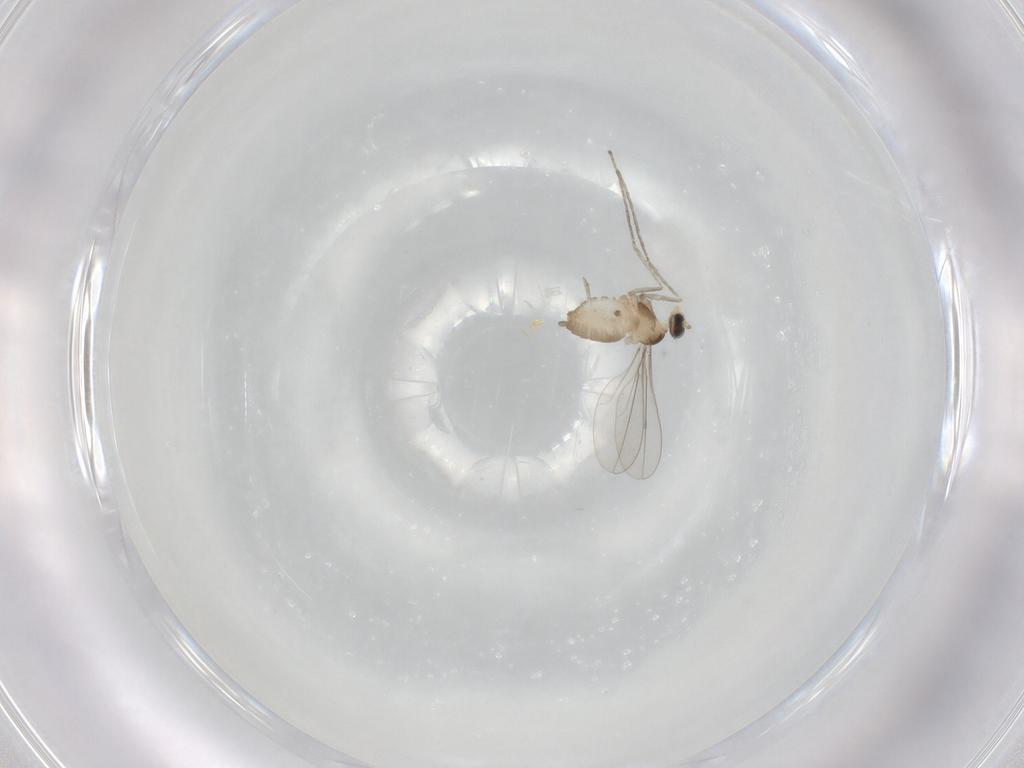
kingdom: Animalia
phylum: Arthropoda
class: Insecta
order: Diptera
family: Cecidomyiidae
